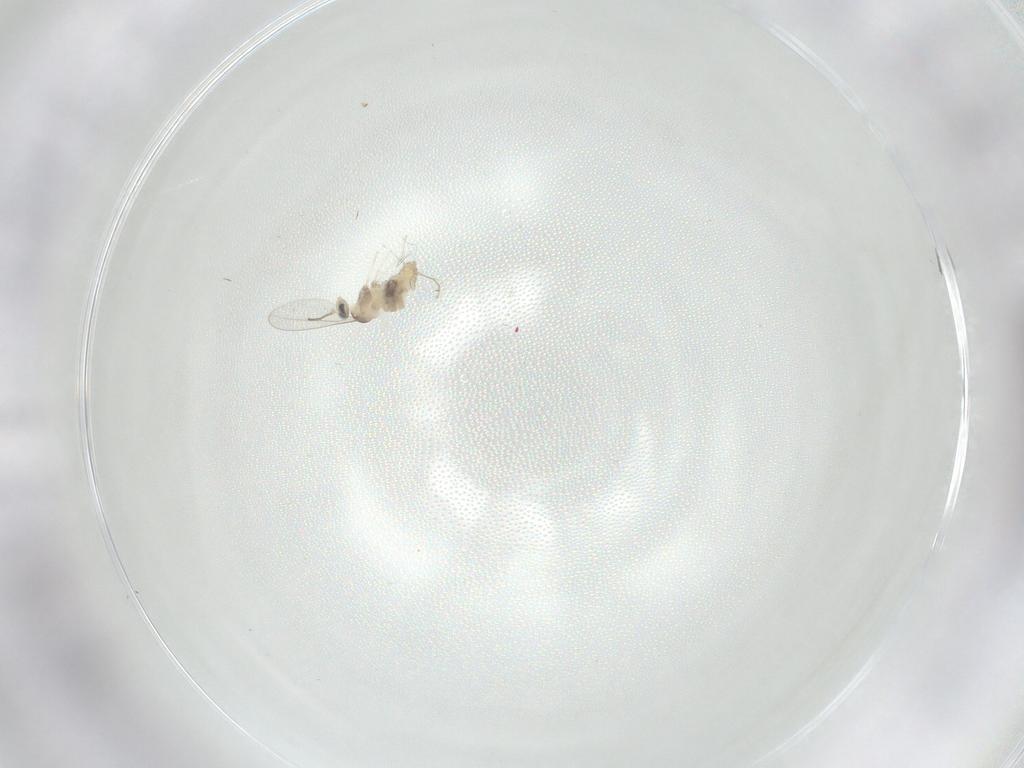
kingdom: Animalia
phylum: Arthropoda
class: Insecta
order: Diptera
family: Cecidomyiidae
